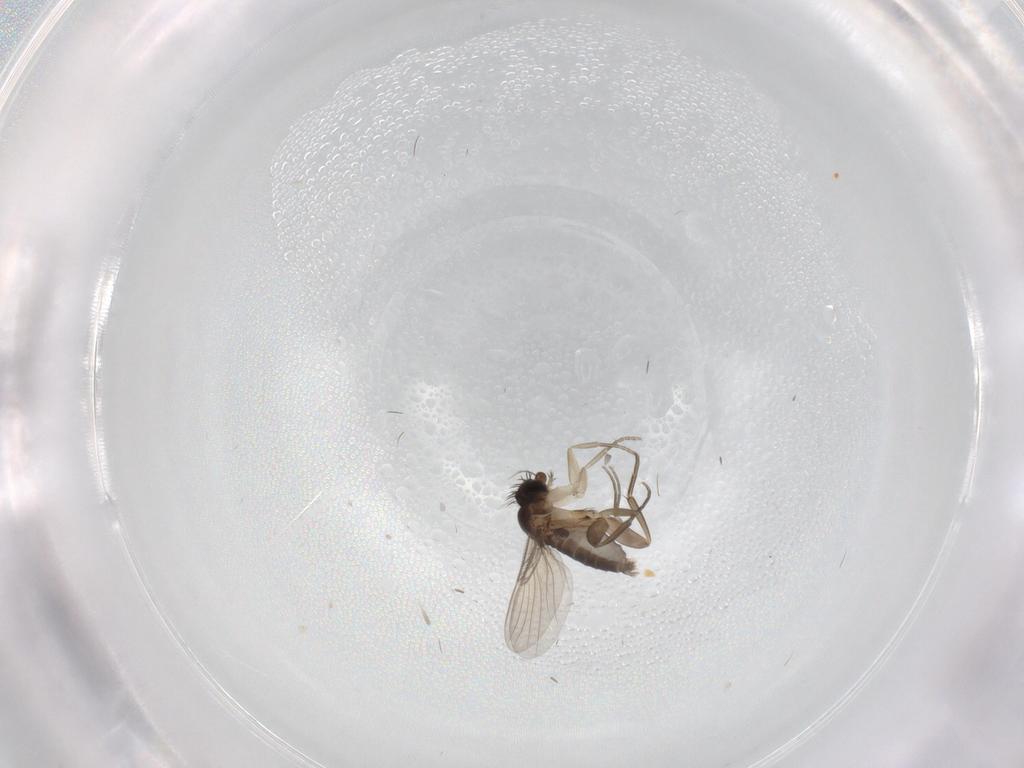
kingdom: Animalia
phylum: Arthropoda
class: Insecta
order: Diptera
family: Phoridae
